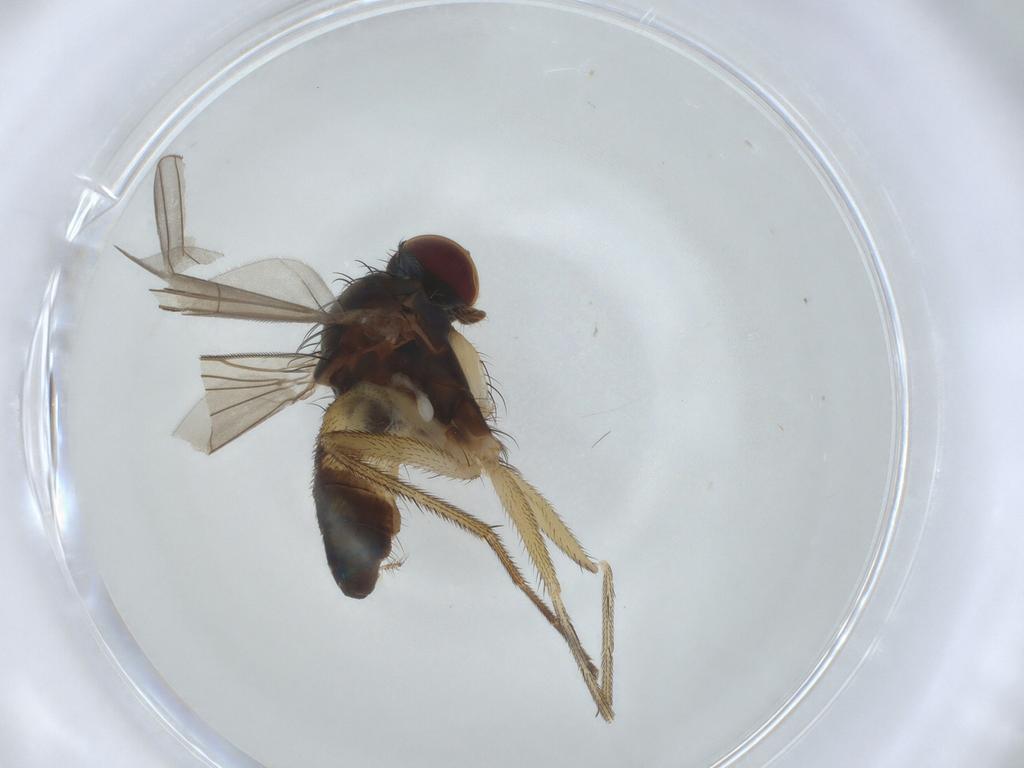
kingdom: Animalia
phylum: Arthropoda
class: Insecta
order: Diptera
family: Dolichopodidae
